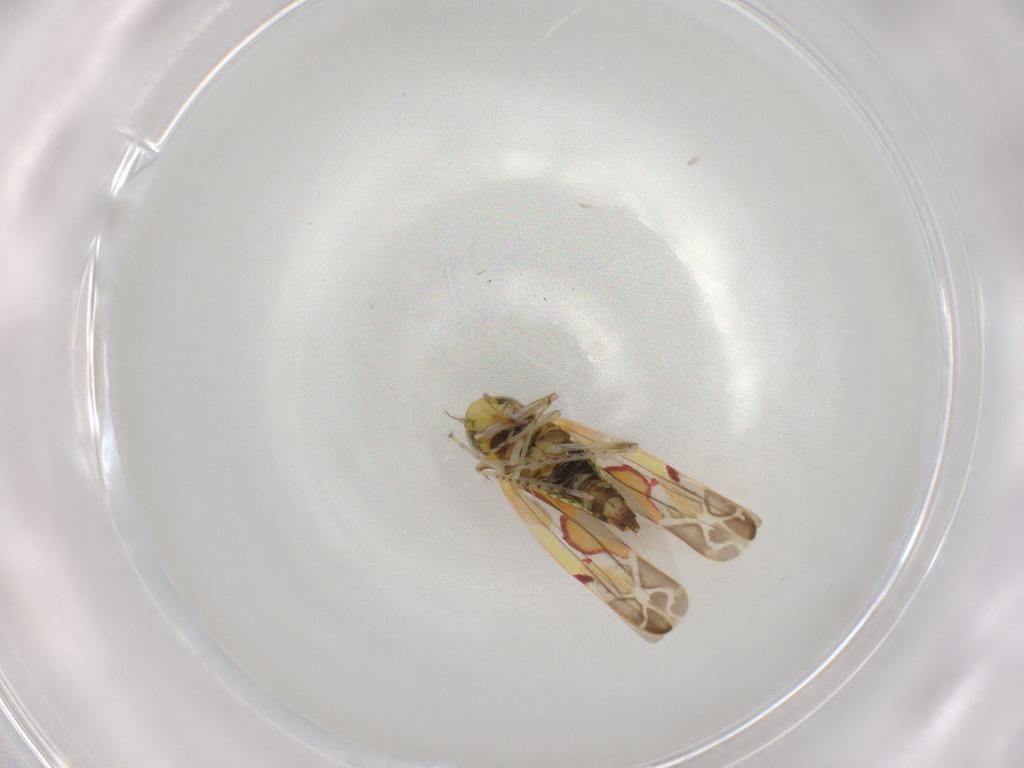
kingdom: Animalia
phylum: Arthropoda
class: Insecta
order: Hemiptera
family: Cicadellidae
